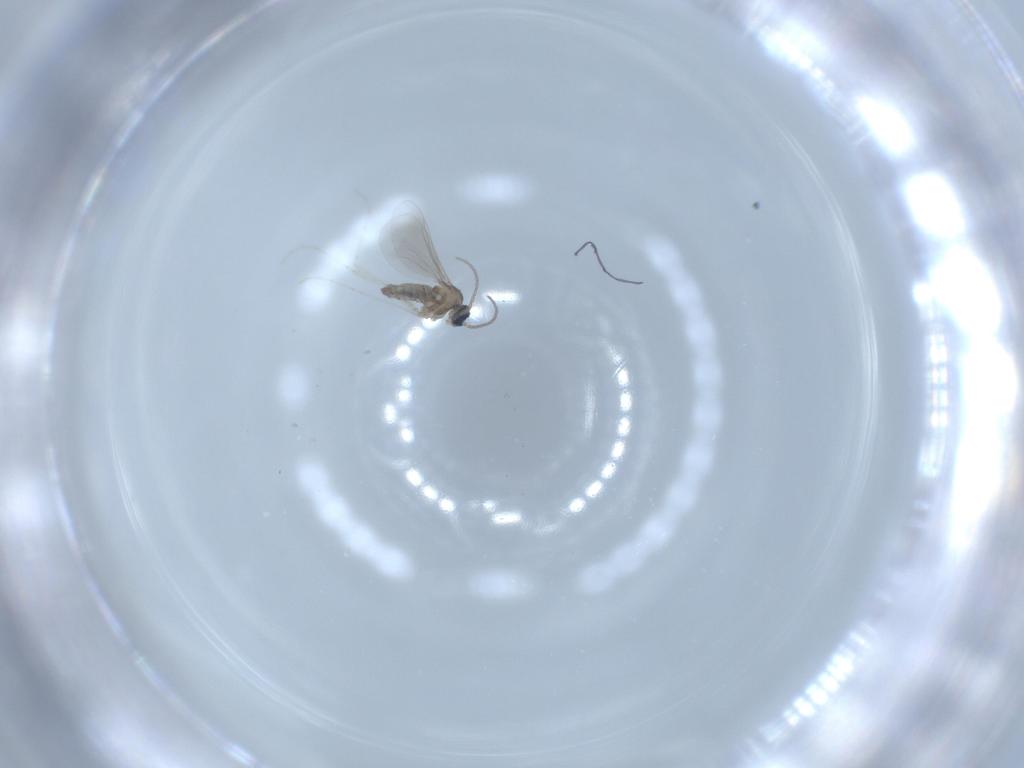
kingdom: Animalia
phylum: Arthropoda
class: Insecta
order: Diptera
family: Cecidomyiidae
